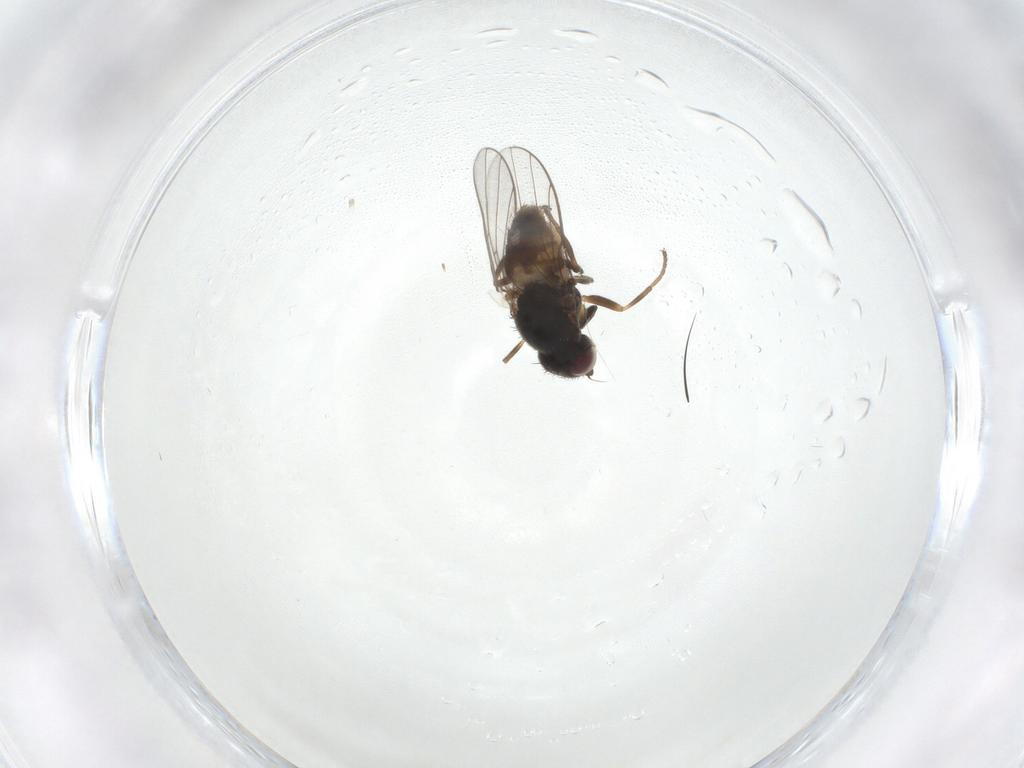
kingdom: Animalia
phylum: Arthropoda
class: Insecta
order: Diptera
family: Chloropidae
